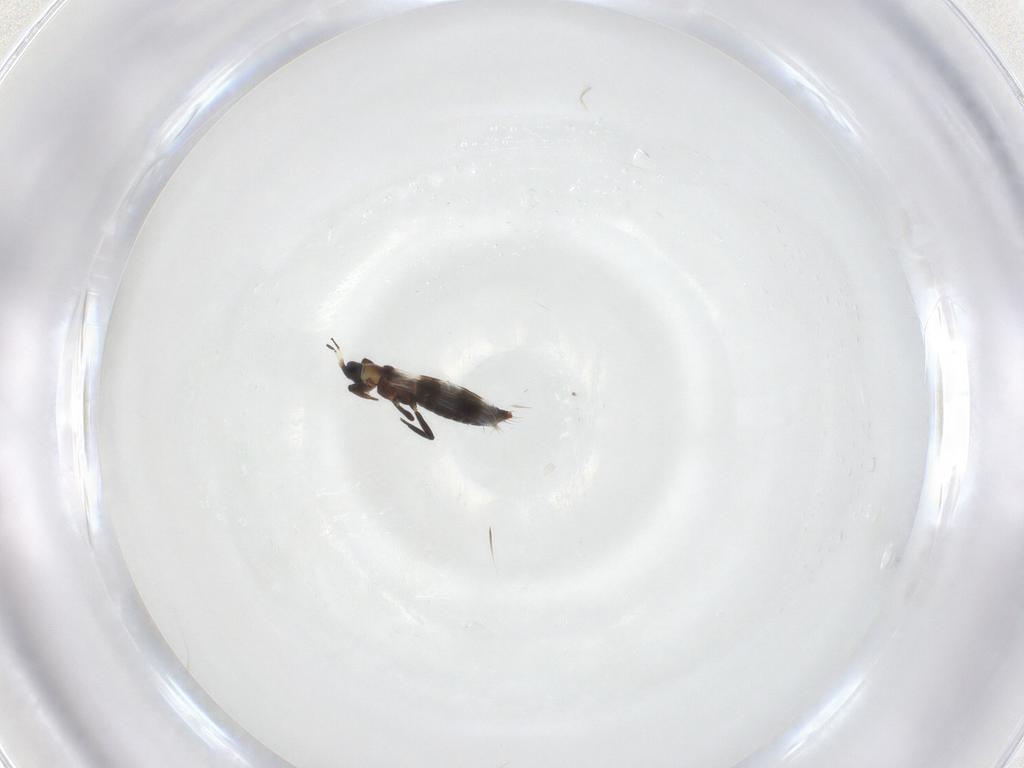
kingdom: Animalia
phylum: Arthropoda
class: Insecta
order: Thysanoptera
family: Aeolothripidae
